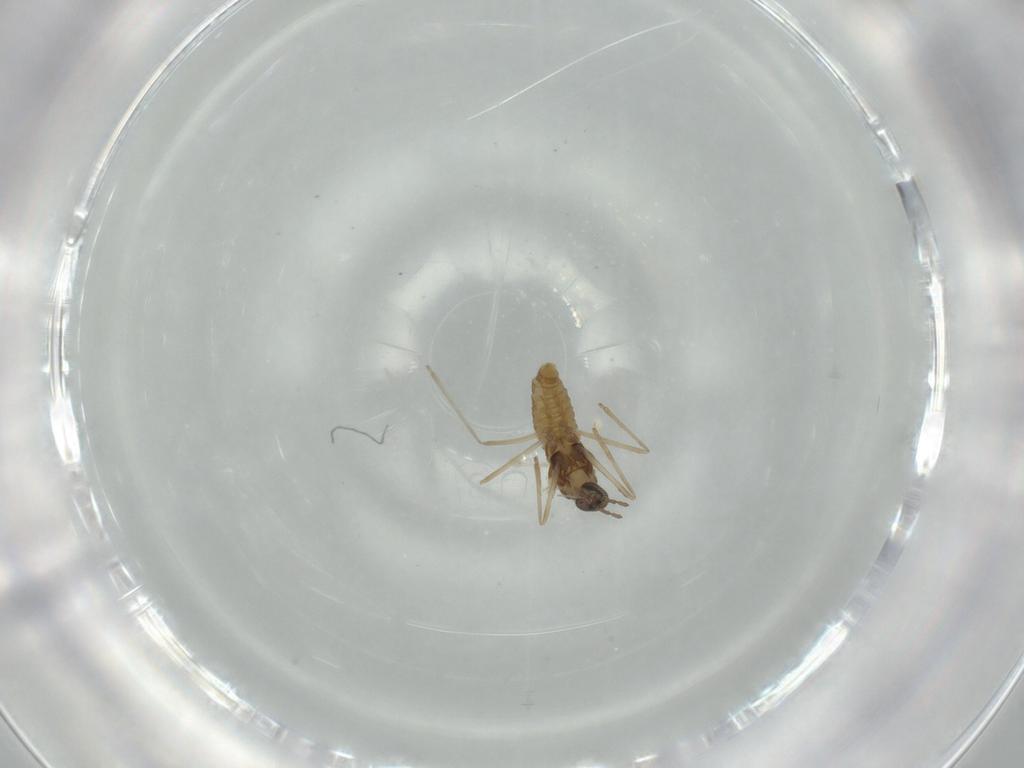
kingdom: Animalia
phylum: Arthropoda
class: Insecta
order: Diptera
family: Cecidomyiidae
